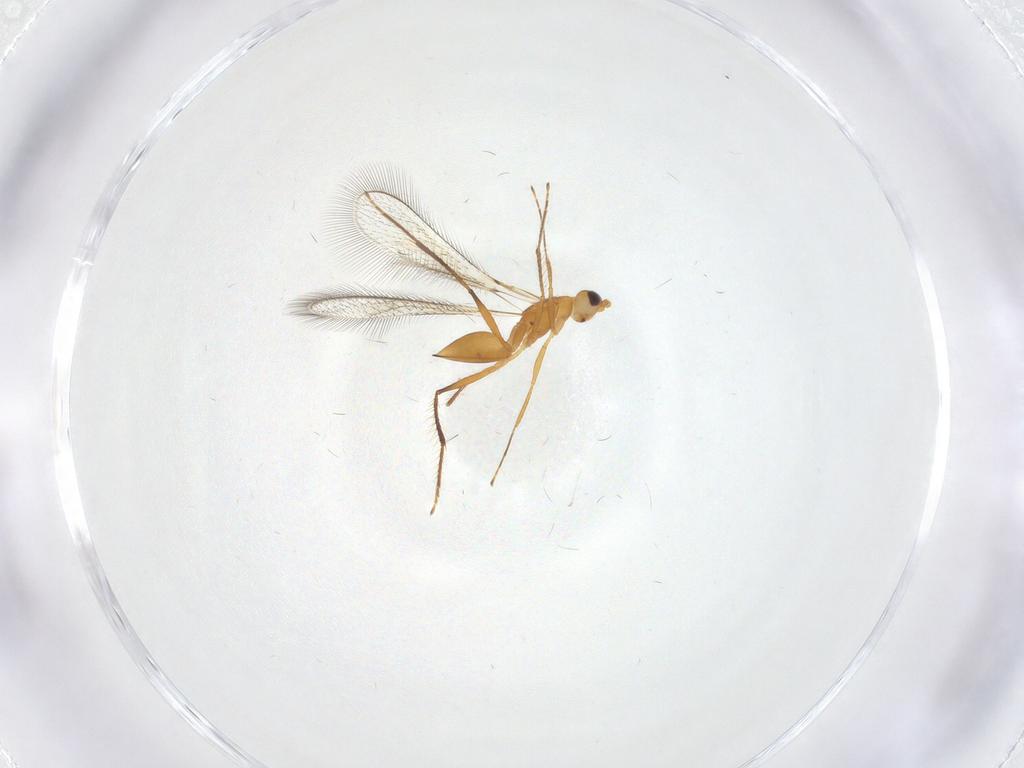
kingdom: Animalia
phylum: Arthropoda
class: Insecta
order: Hymenoptera
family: Mymaridae
